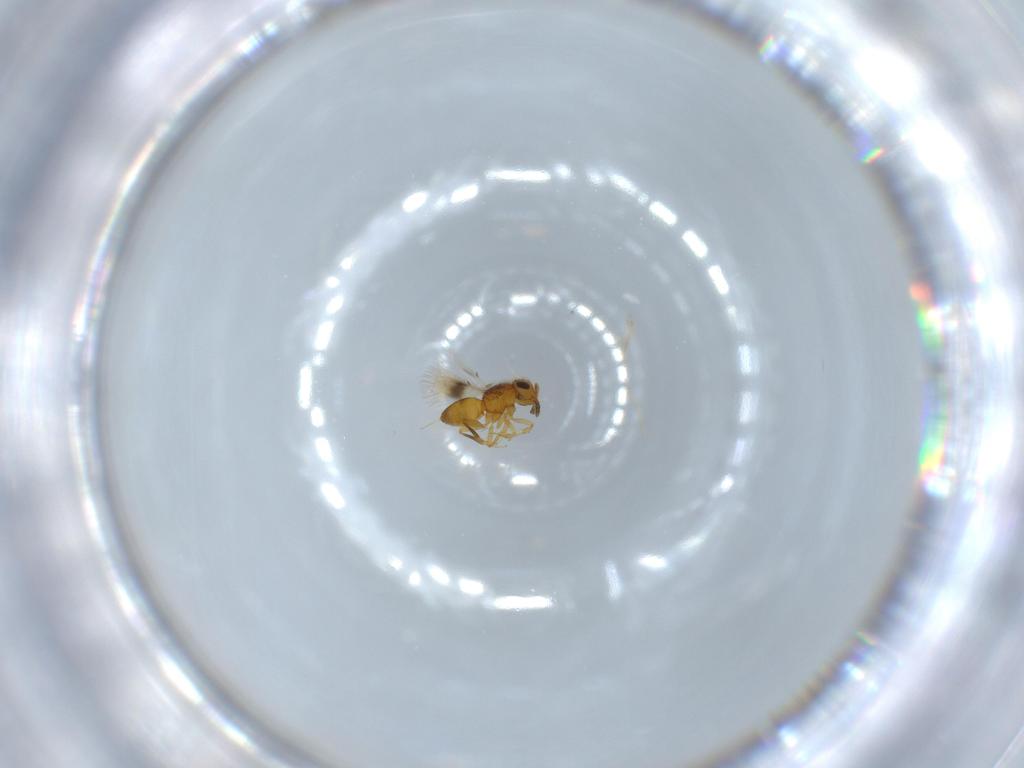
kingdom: Animalia
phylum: Arthropoda
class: Insecta
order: Hymenoptera
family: Scelionidae
